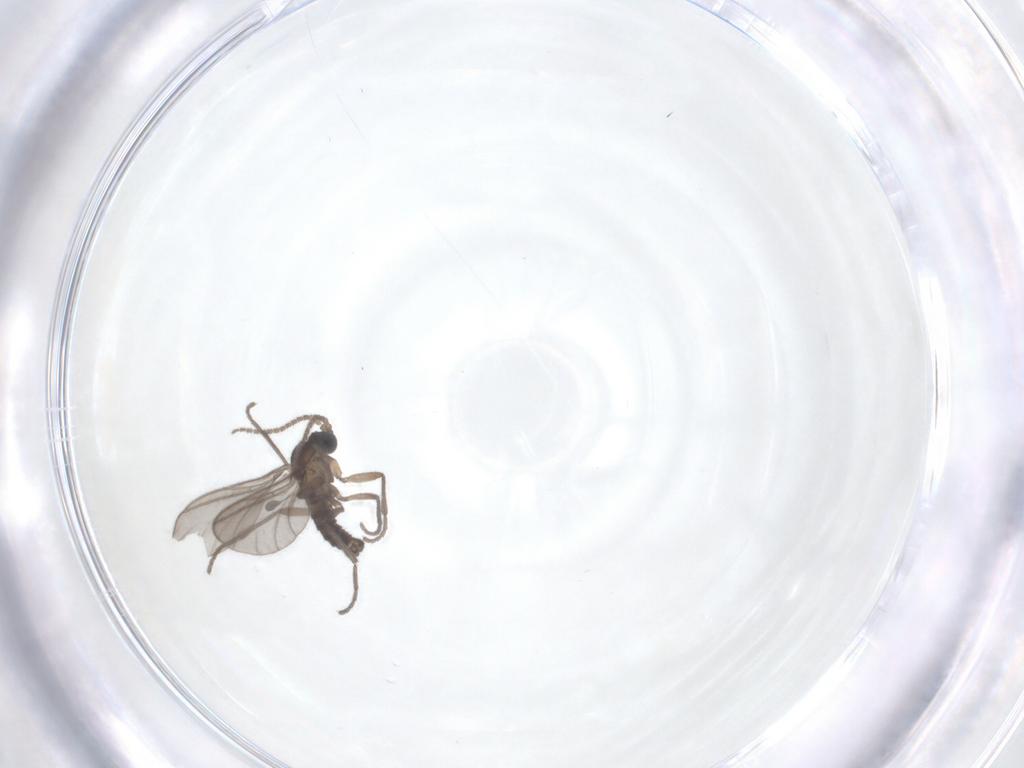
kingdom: Animalia
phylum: Arthropoda
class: Insecta
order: Diptera
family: Sciaridae
